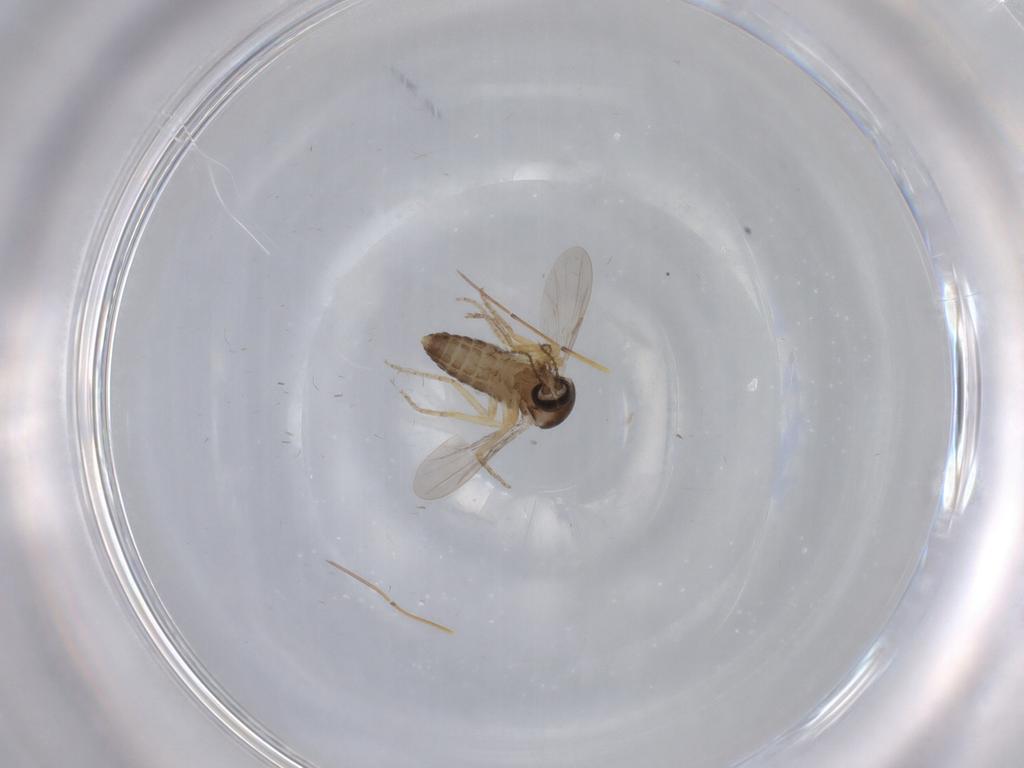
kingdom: Animalia
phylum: Arthropoda
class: Insecta
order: Diptera
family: Ceratopogonidae
